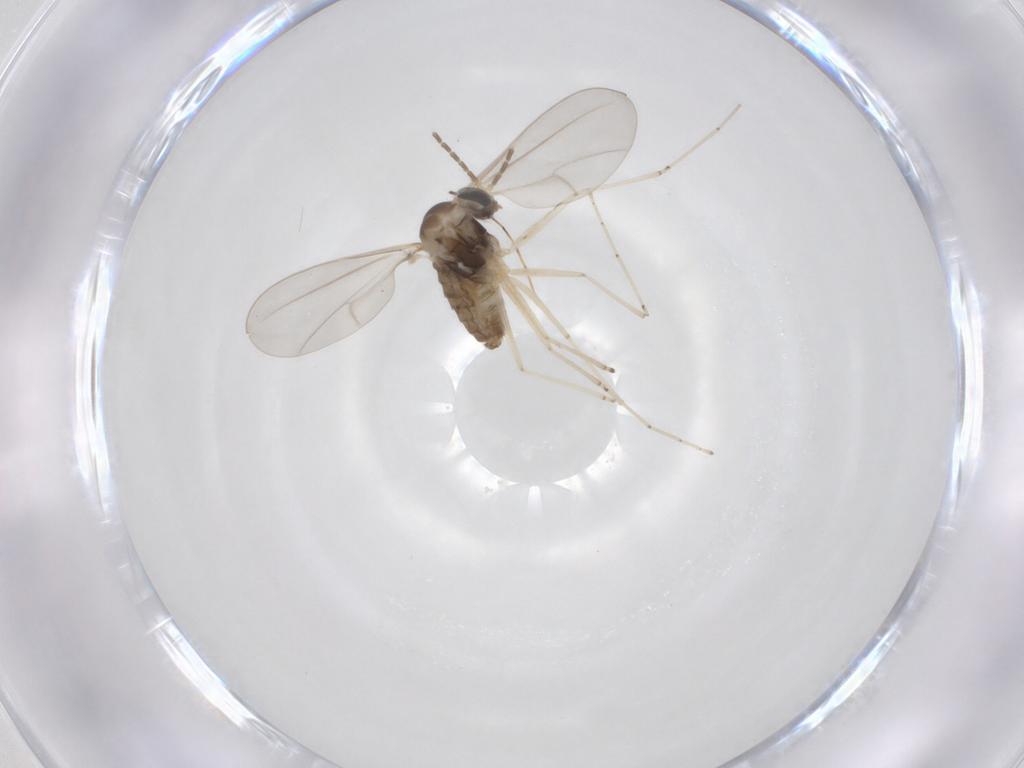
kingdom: Animalia
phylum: Arthropoda
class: Insecta
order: Diptera
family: Cecidomyiidae
